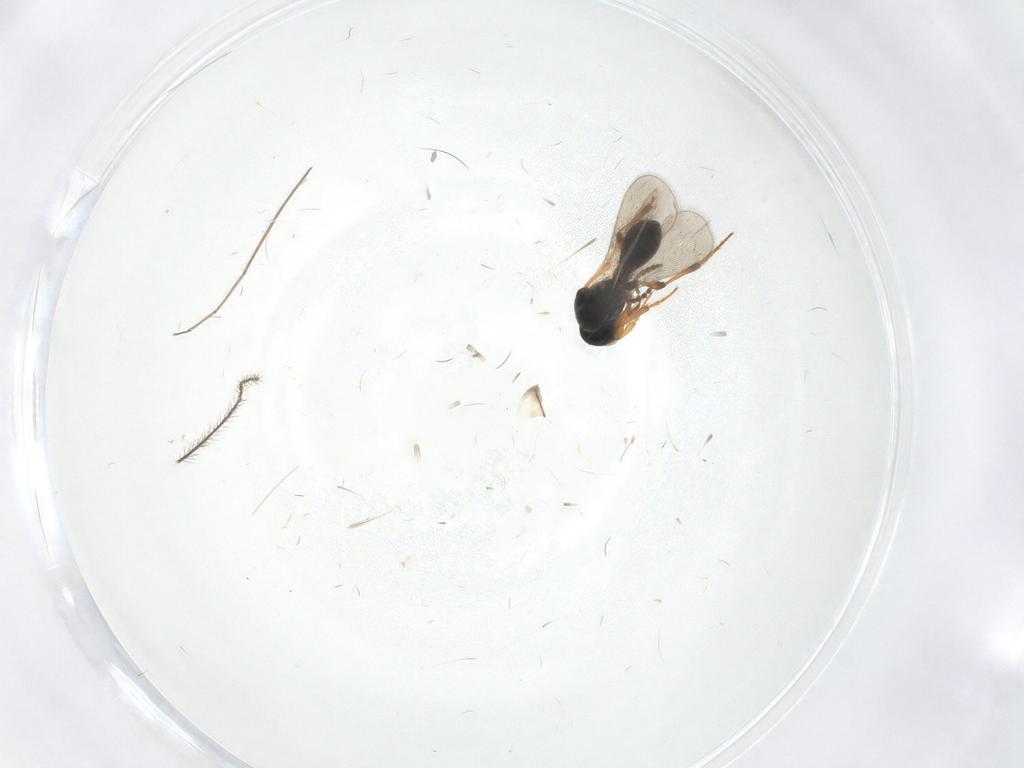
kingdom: Animalia
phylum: Arthropoda
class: Insecta
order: Hymenoptera
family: Platygastridae
